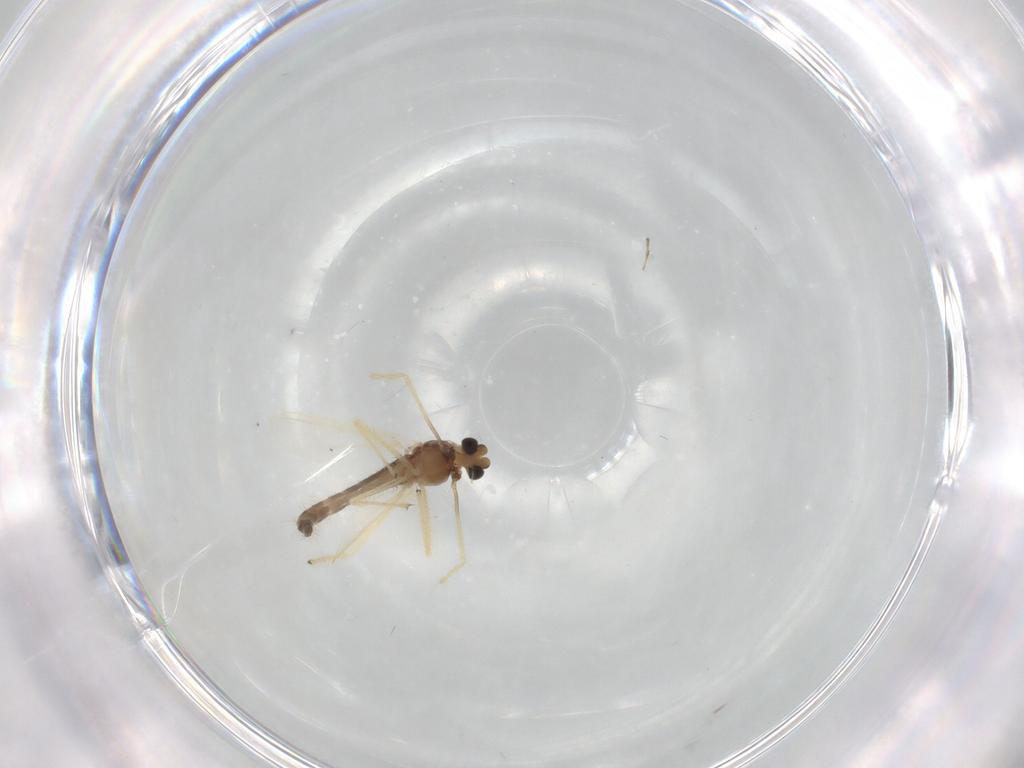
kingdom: Animalia
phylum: Arthropoda
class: Insecta
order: Diptera
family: Chironomidae
